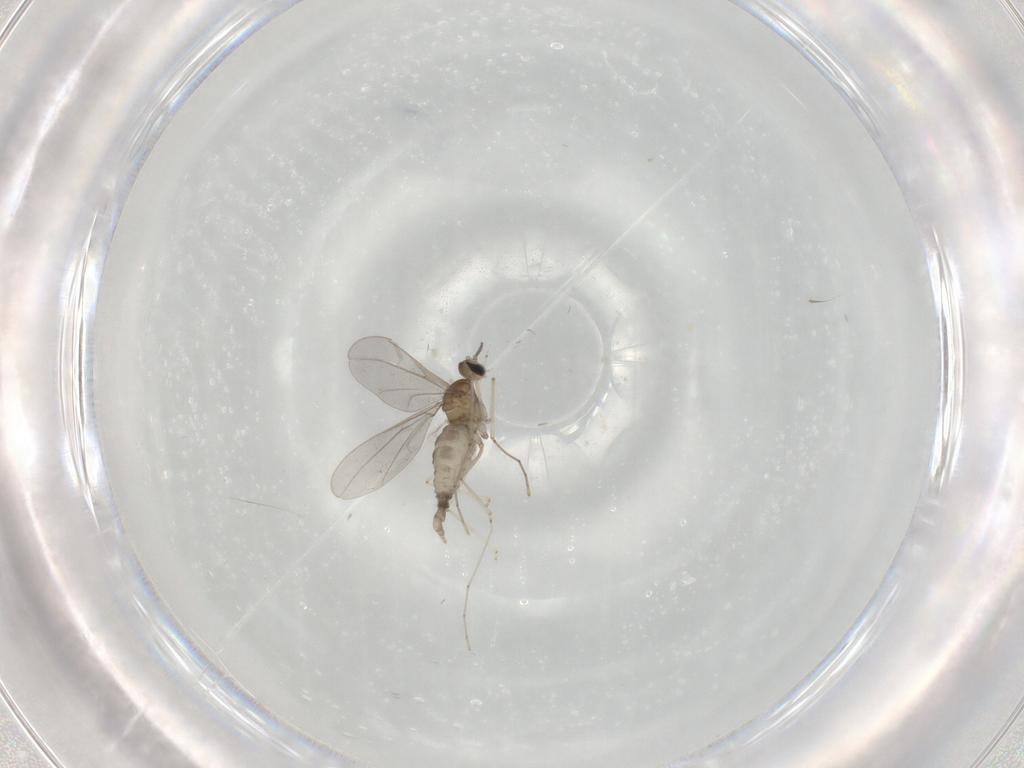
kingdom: Animalia
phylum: Arthropoda
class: Insecta
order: Diptera
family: Cecidomyiidae
